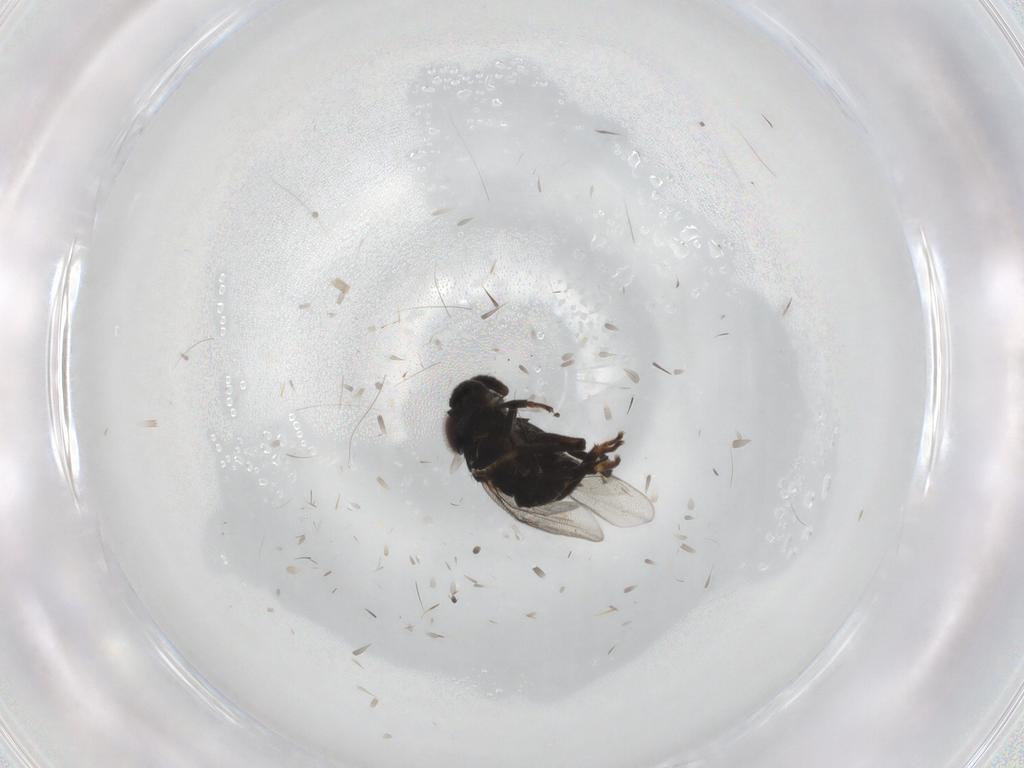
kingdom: Animalia
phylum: Arthropoda
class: Insecta
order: Hymenoptera
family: Encyrtidae
